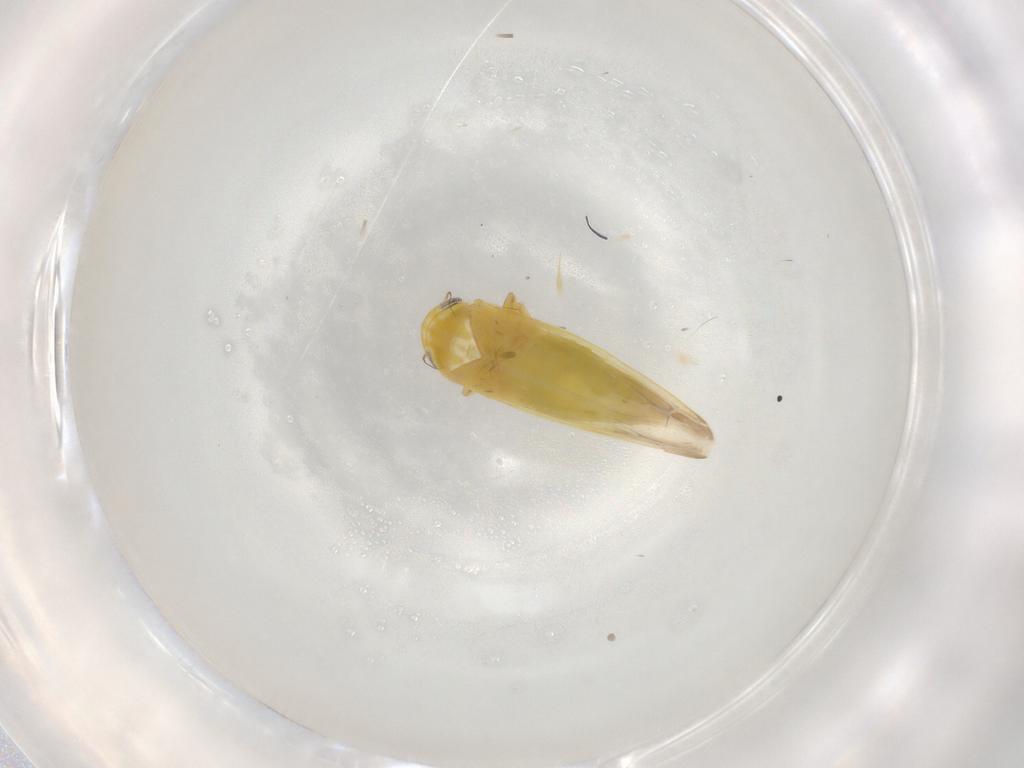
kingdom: Animalia
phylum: Arthropoda
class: Insecta
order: Hemiptera
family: Cicadellidae
